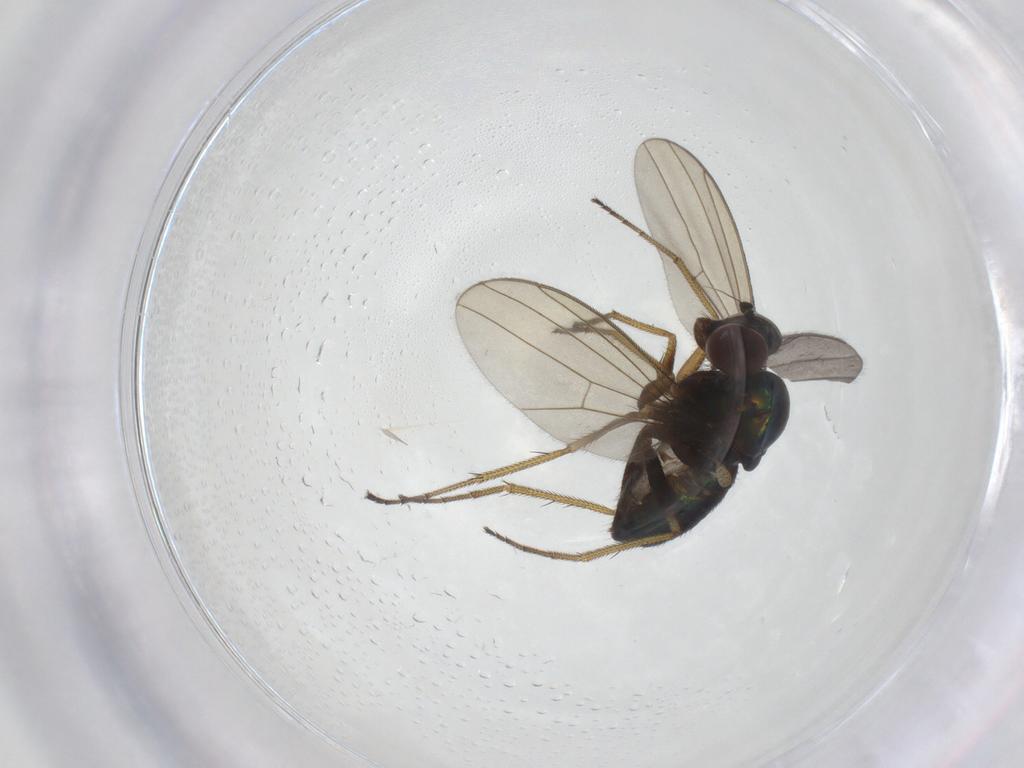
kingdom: Animalia
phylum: Arthropoda
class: Insecta
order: Diptera
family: Dolichopodidae
